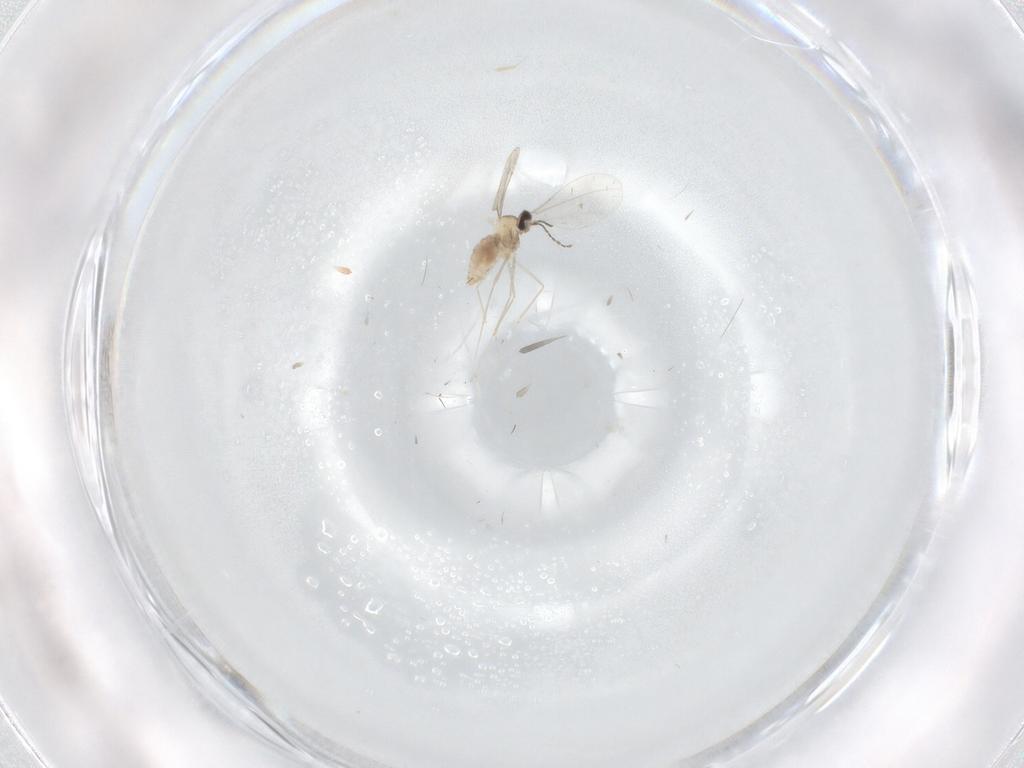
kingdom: Animalia
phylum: Arthropoda
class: Insecta
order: Diptera
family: Cecidomyiidae
